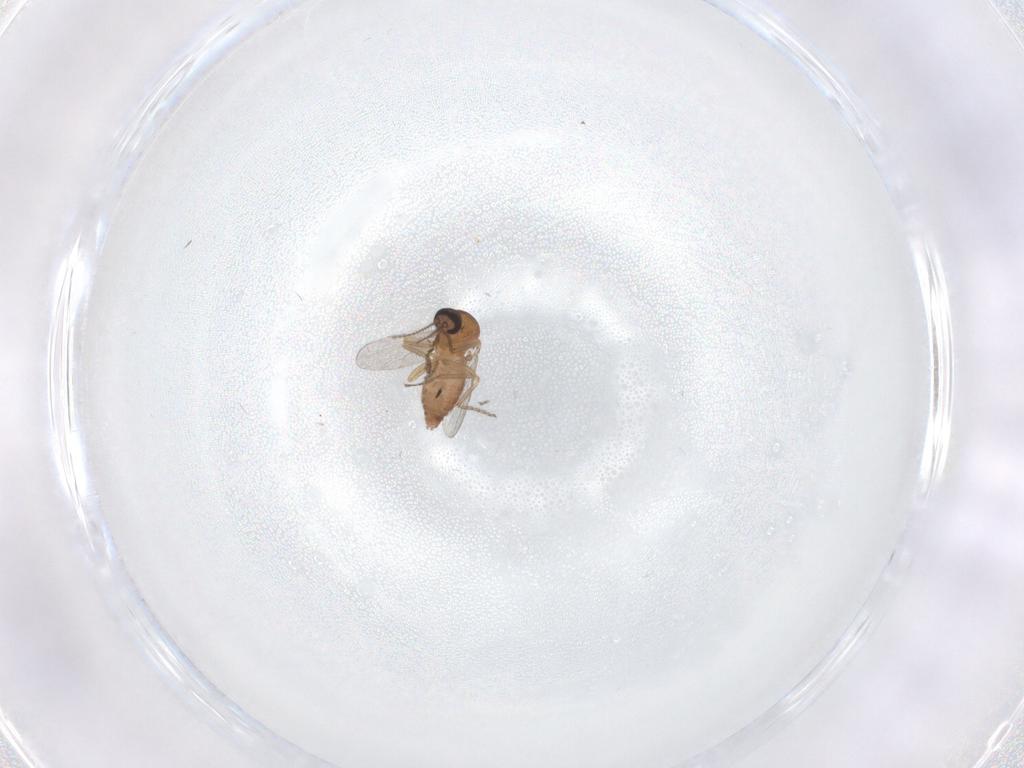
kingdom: Animalia
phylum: Arthropoda
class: Insecta
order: Diptera
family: Ceratopogonidae
